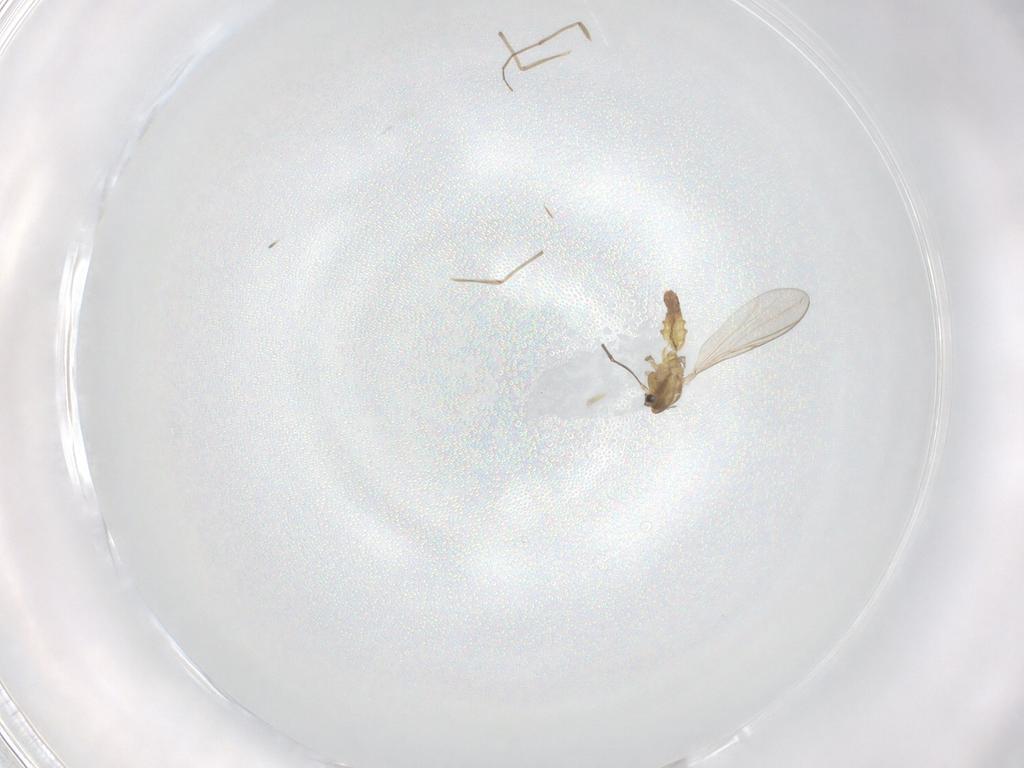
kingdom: Animalia
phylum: Arthropoda
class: Insecta
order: Diptera
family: Chironomidae
